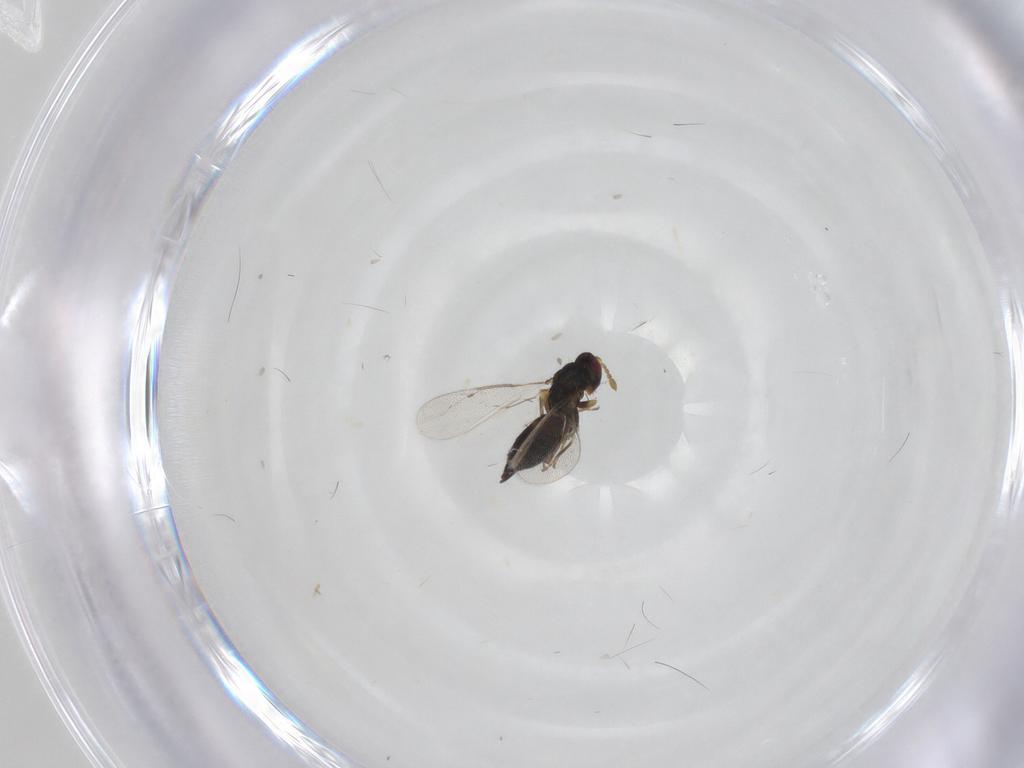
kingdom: Animalia
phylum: Arthropoda
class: Insecta
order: Hymenoptera
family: Eulophidae
